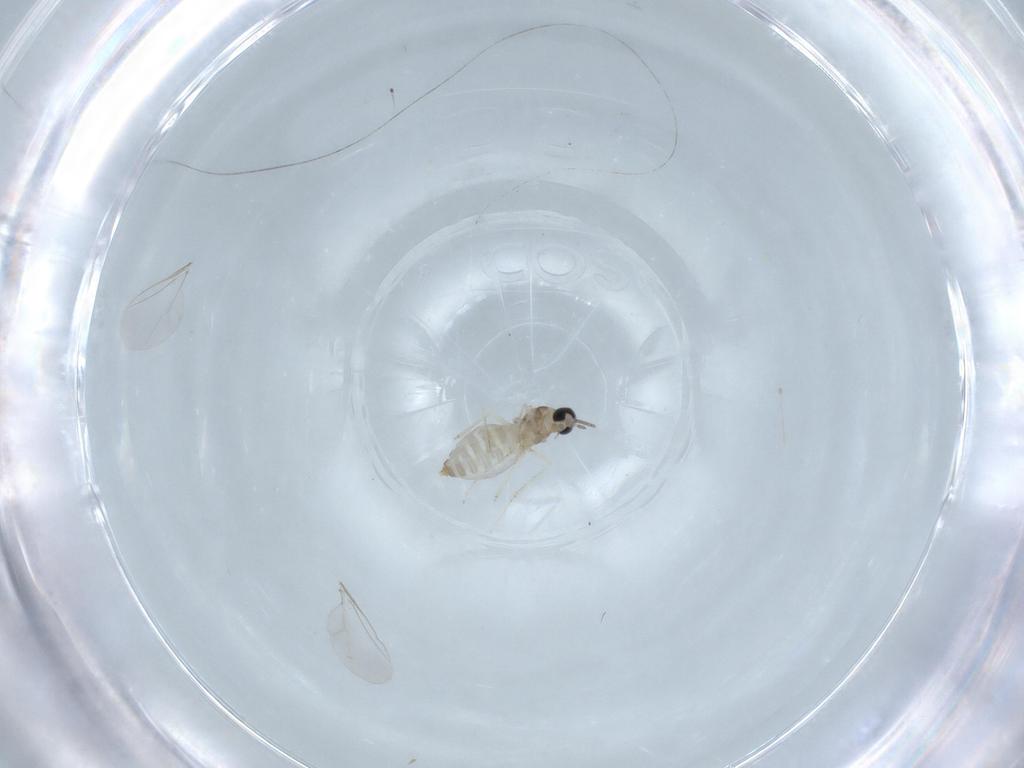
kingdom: Animalia
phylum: Arthropoda
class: Insecta
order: Diptera
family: Cecidomyiidae
